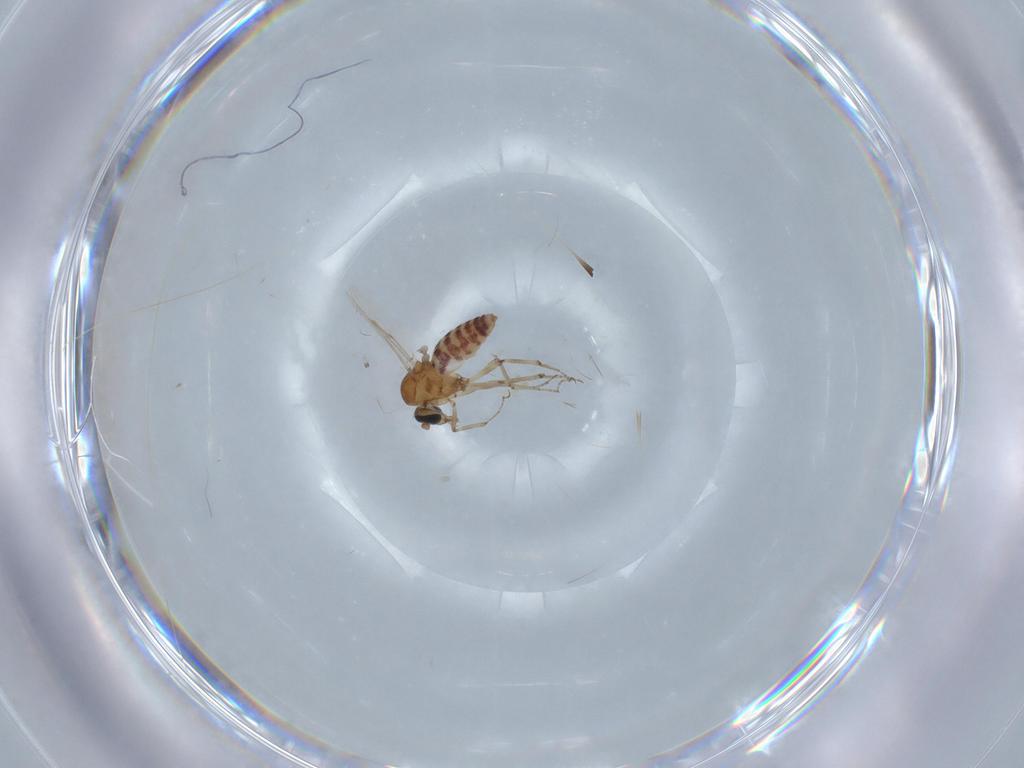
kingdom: Animalia
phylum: Arthropoda
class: Insecta
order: Diptera
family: Ceratopogonidae
